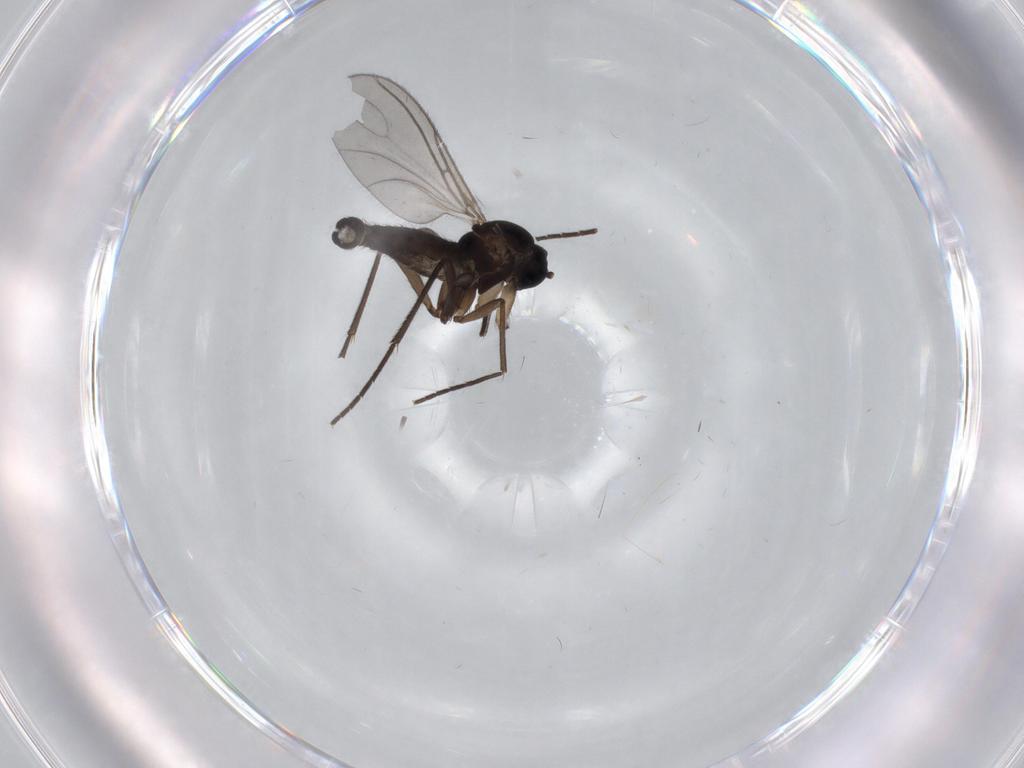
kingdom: Animalia
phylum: Arthropoda
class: Insecta
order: Diptera
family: Sciaridae
